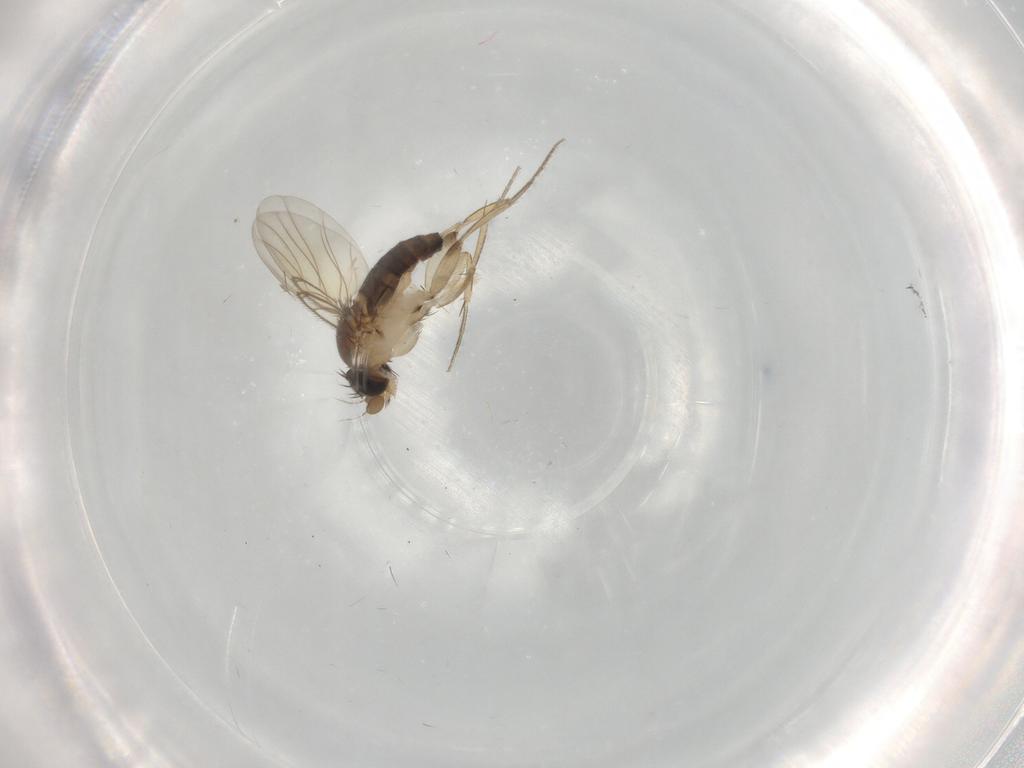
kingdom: Animalia
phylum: Arthropoda
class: Insecta
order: Diptera
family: Phoridae
